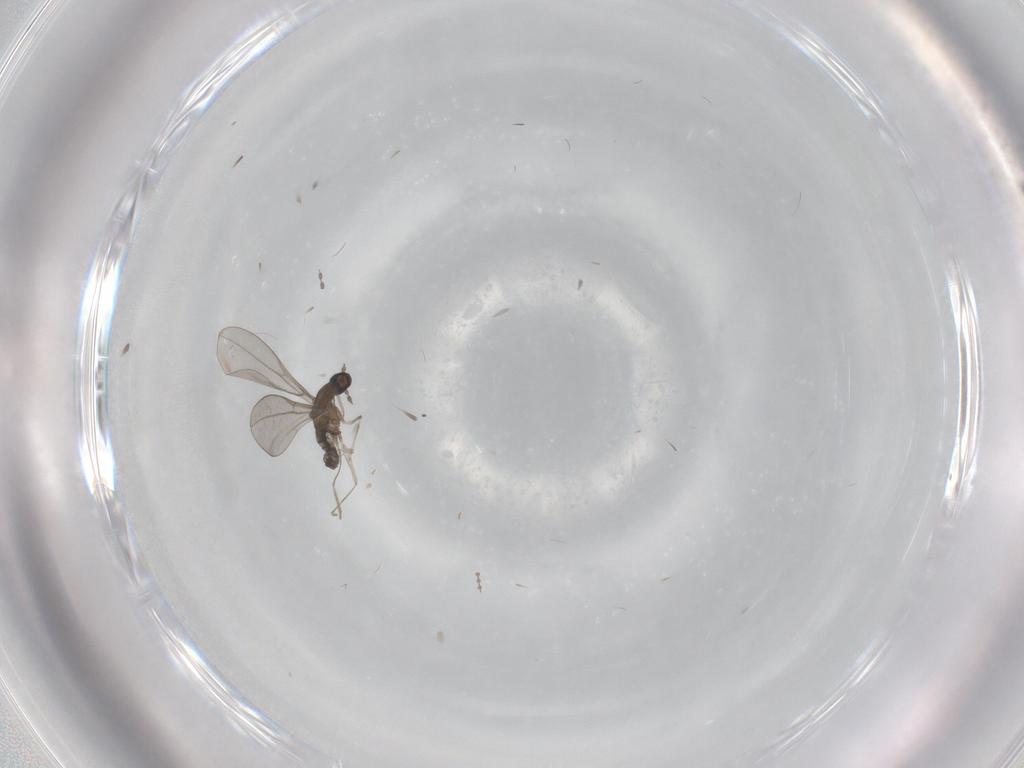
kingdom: Animalia
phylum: Arthropoda
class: Insecta
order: Diptera
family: Cecidomyiidae
